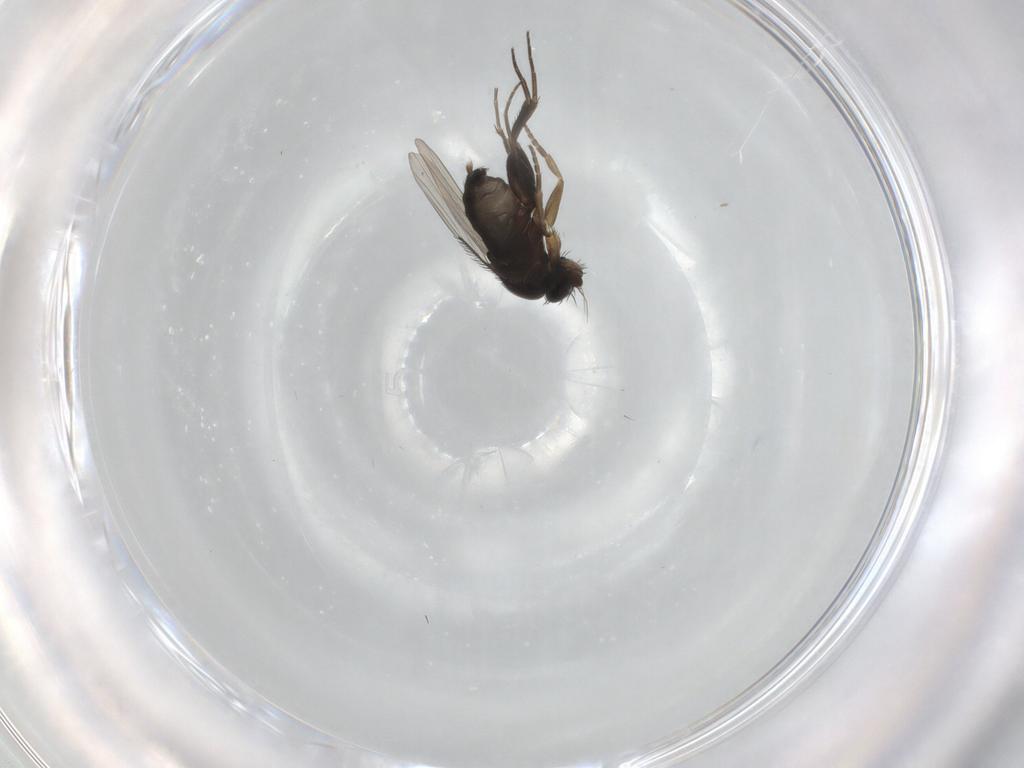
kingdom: Animalia
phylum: Arthropoda
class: Insecta
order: Diptera
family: Phoridae
